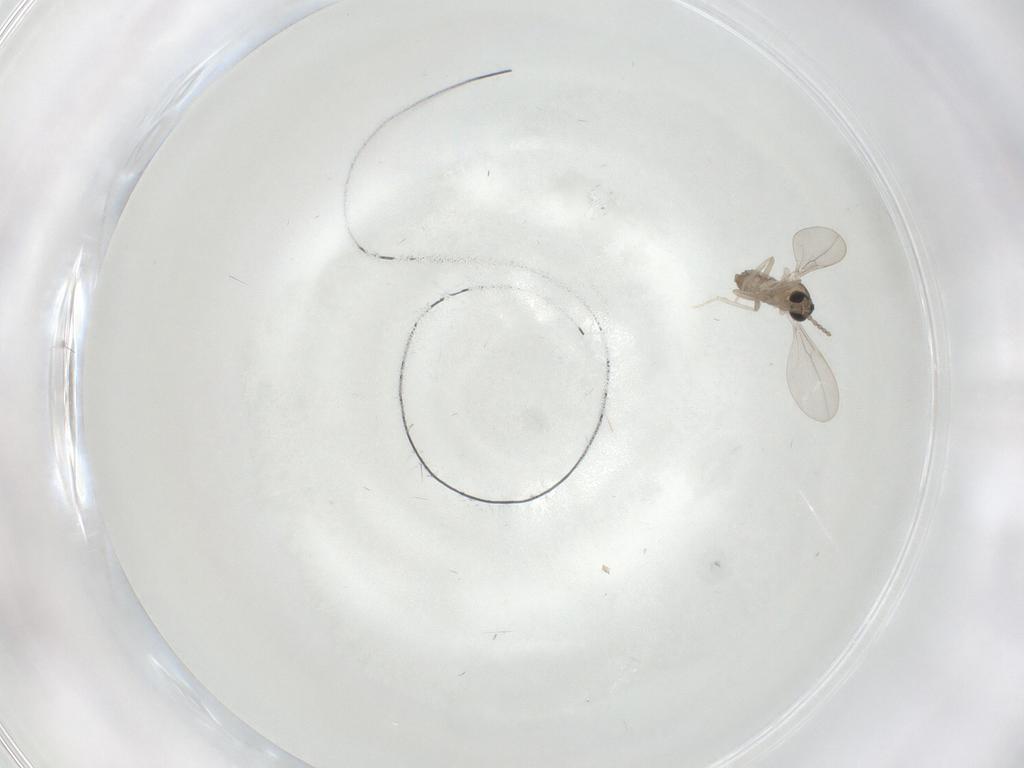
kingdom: Animalia
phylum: Arthropoda
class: Insecta
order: Diptera
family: Cecidomyiidae
